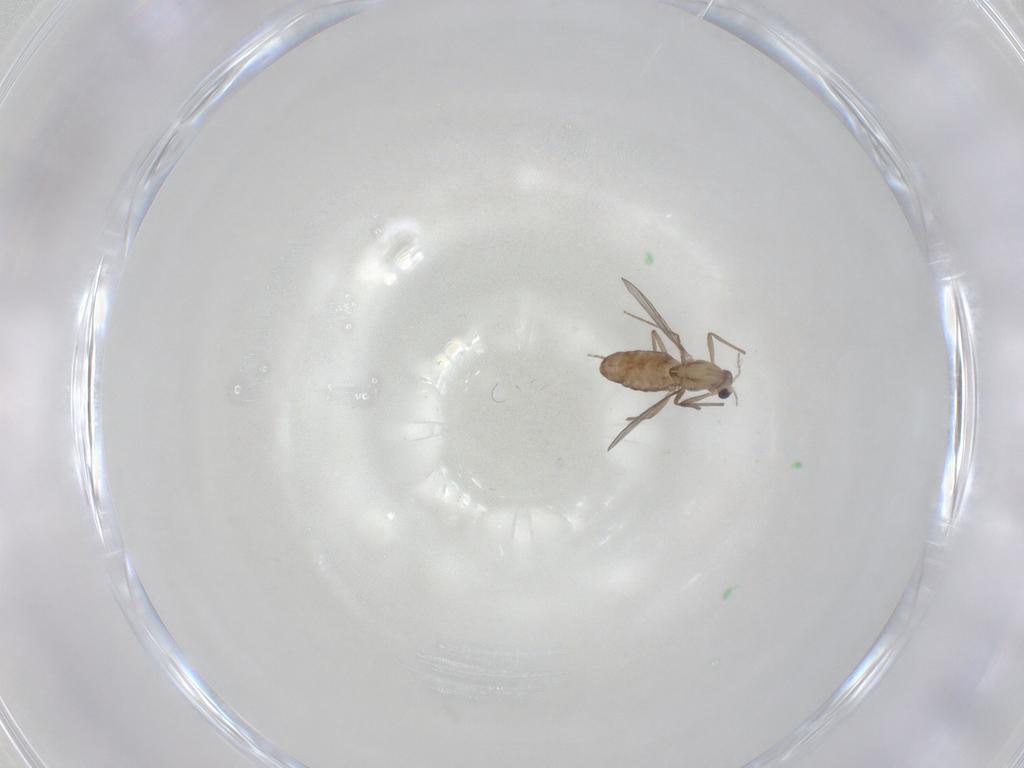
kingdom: Animalia
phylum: Arthropoda
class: Insecta
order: Diptera
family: Chironomidae
